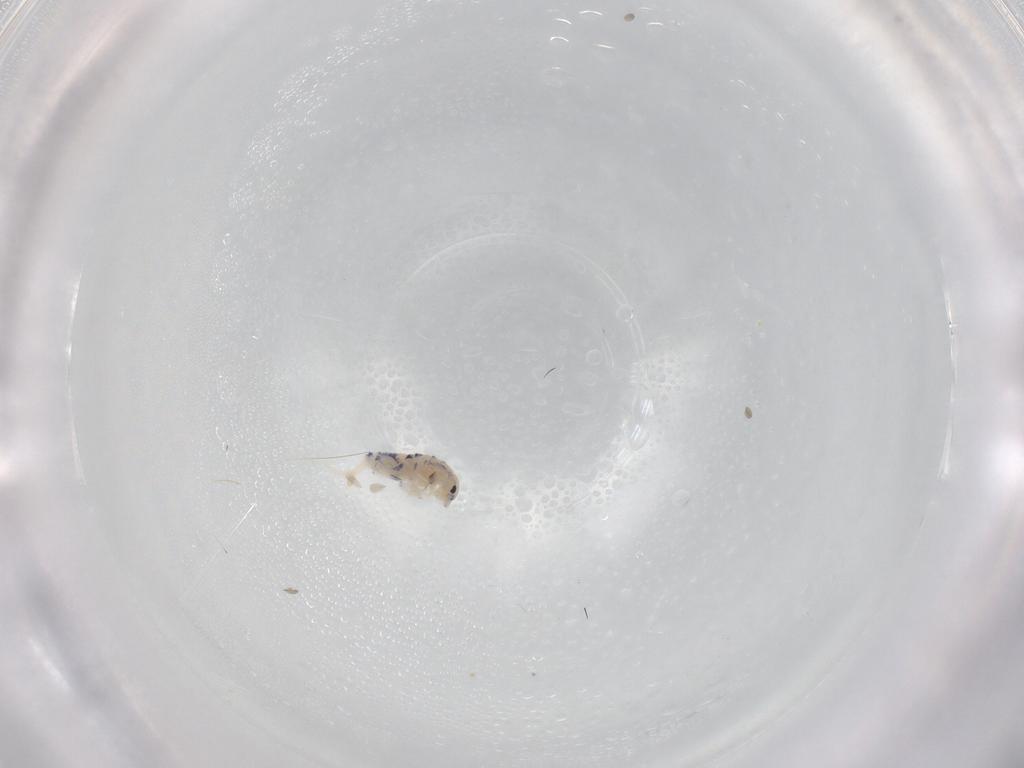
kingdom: Animalia
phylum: Arthropoda
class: Collembola
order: Entomobryomorpha
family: Entomobryidae
